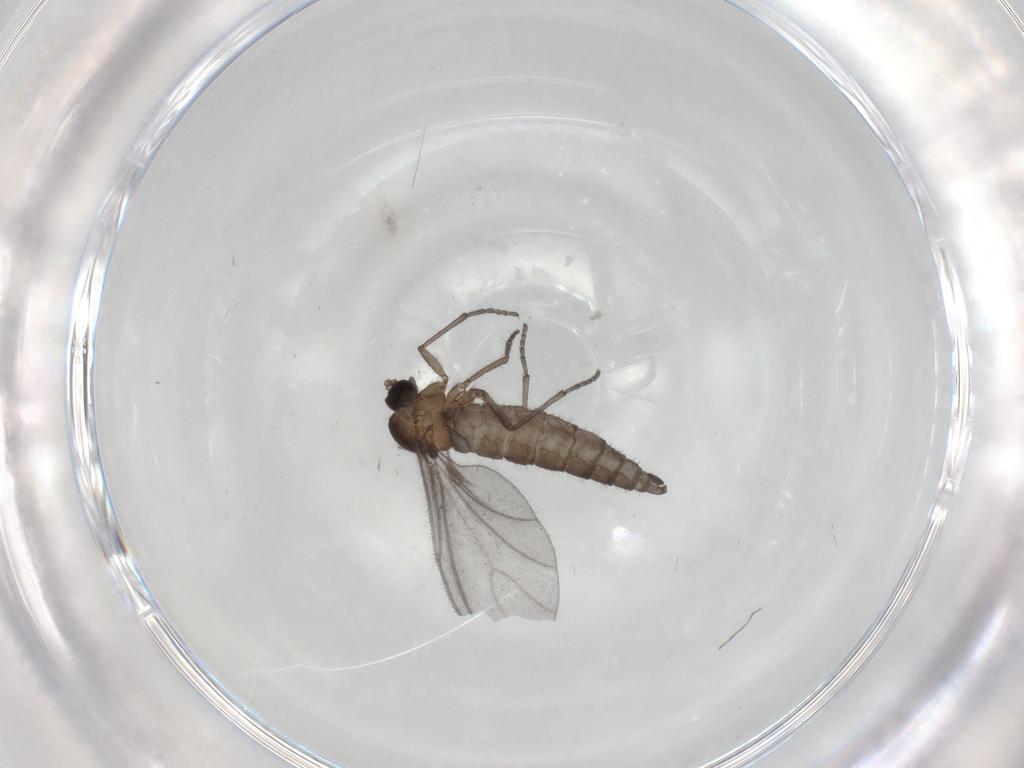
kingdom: Animalia
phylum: Arthropoda
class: Insecta
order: Diptera
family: Sciaridae
